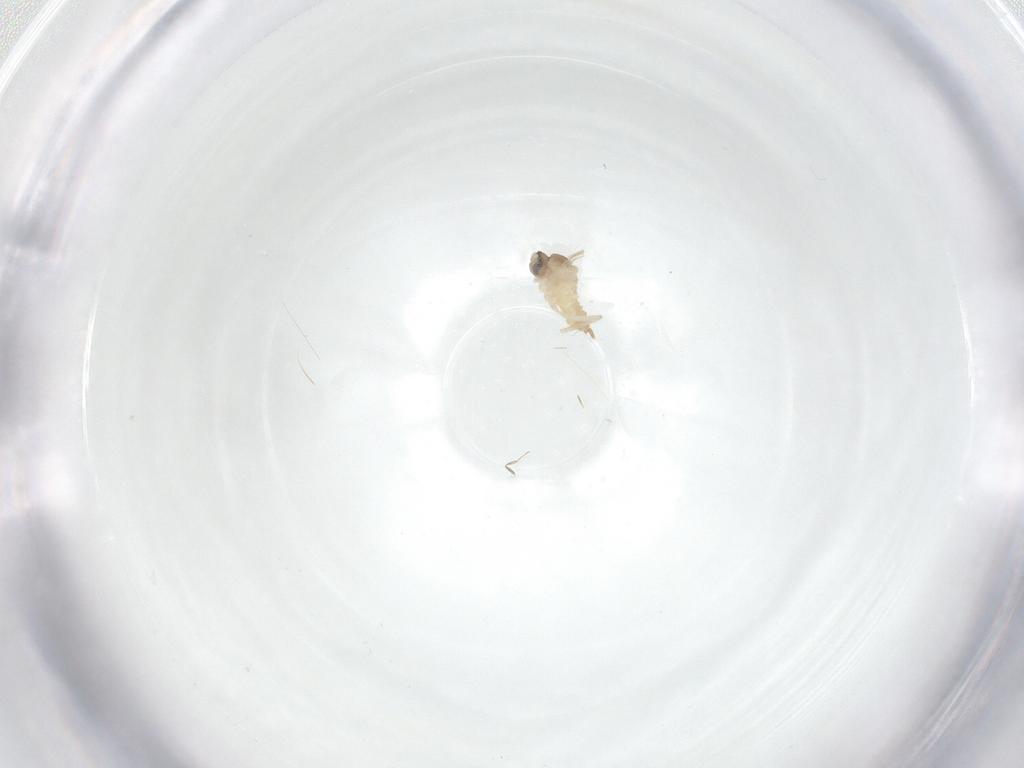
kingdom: Animalia
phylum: Arthropoda
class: Insecta
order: Diptera
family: Cecidomyiidae
